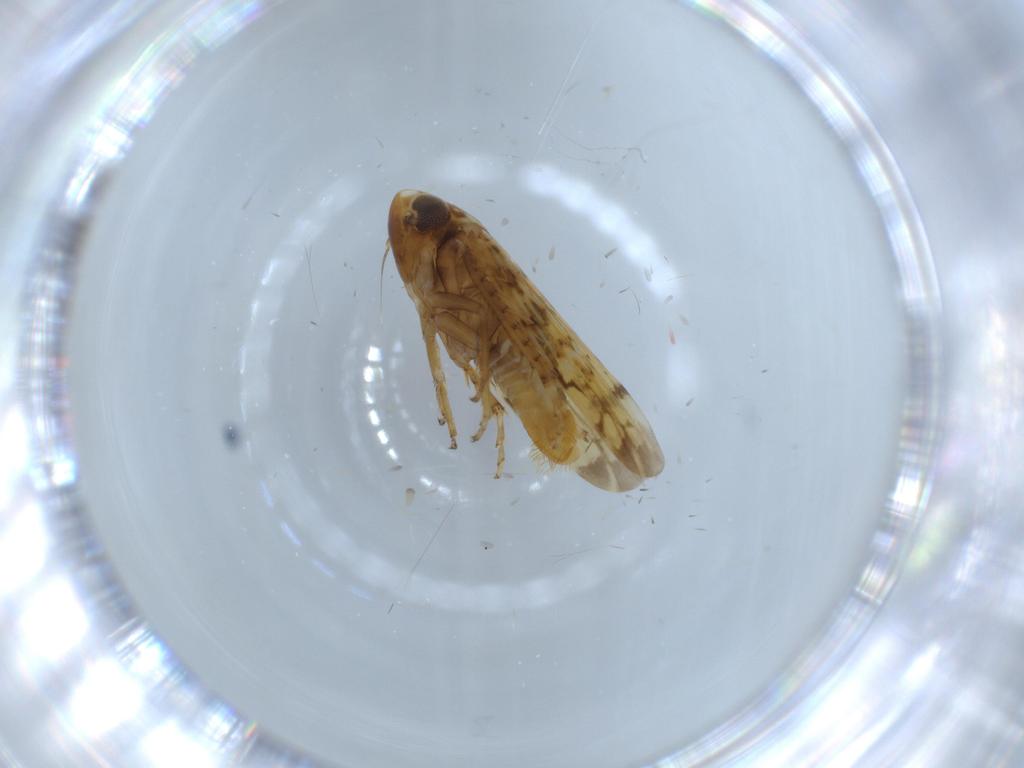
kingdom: Animalia
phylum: Arthropoda
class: Insecta
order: Hemiptera
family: Cicadellidae
